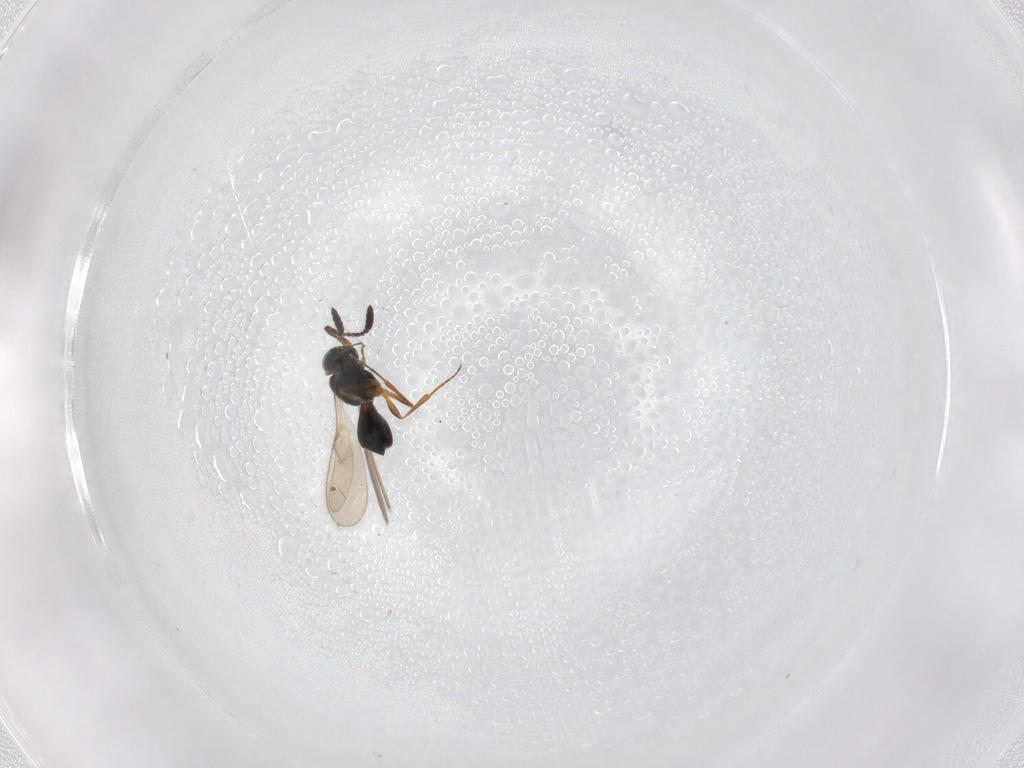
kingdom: Animalia
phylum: Arthropoda
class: Insecta
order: Hymenoptera
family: Scelionidae
